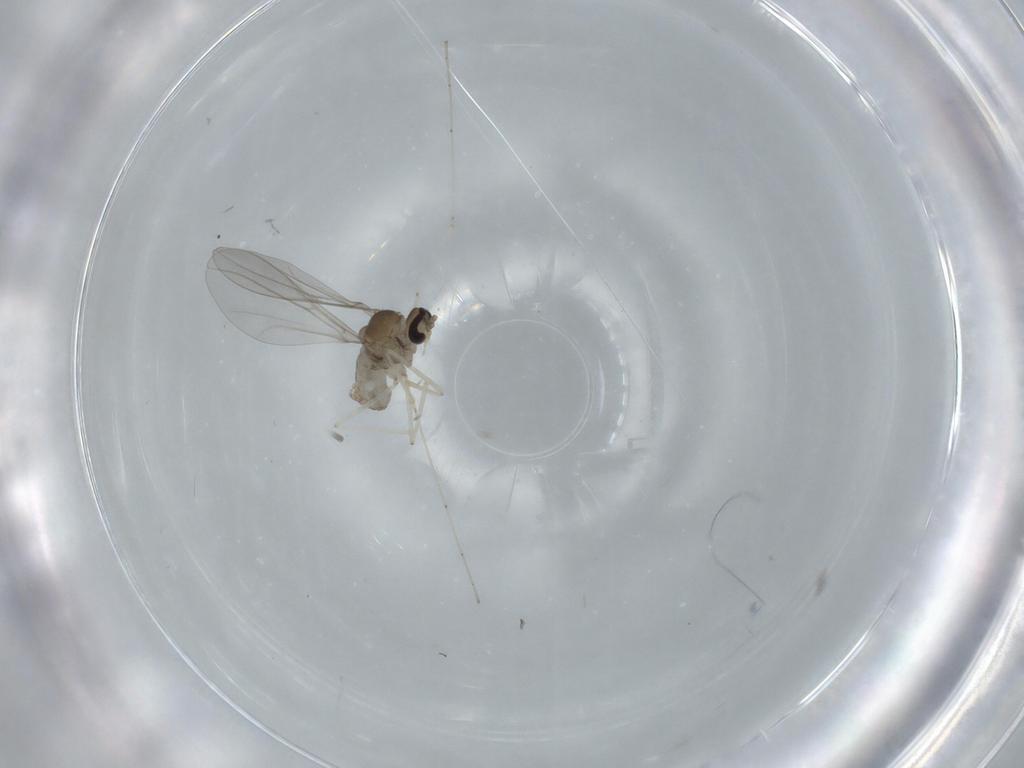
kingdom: Animalia
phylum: Arthropoda
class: Insecta
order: Diptera
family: Cecidomyiidae
